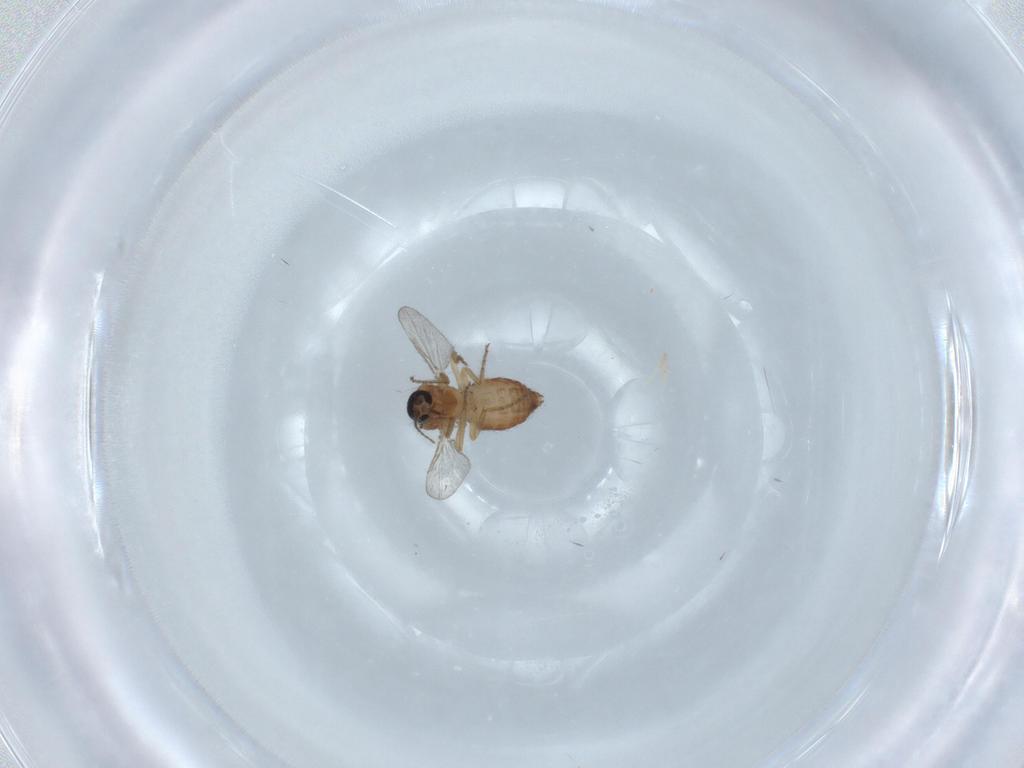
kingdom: Animalia
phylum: Arthropoda
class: Insecta
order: Diptera
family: Ceratopogonidae
